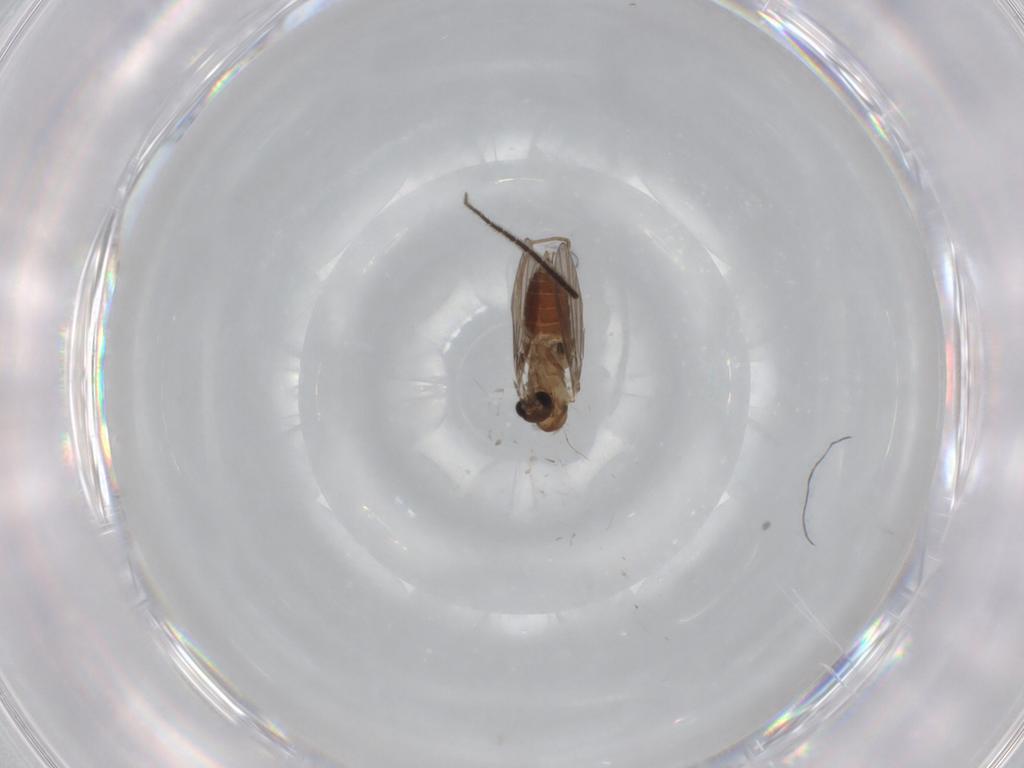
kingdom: Animalia
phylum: Arthropoda
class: Insecta
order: Diptera
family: Sciaridae
